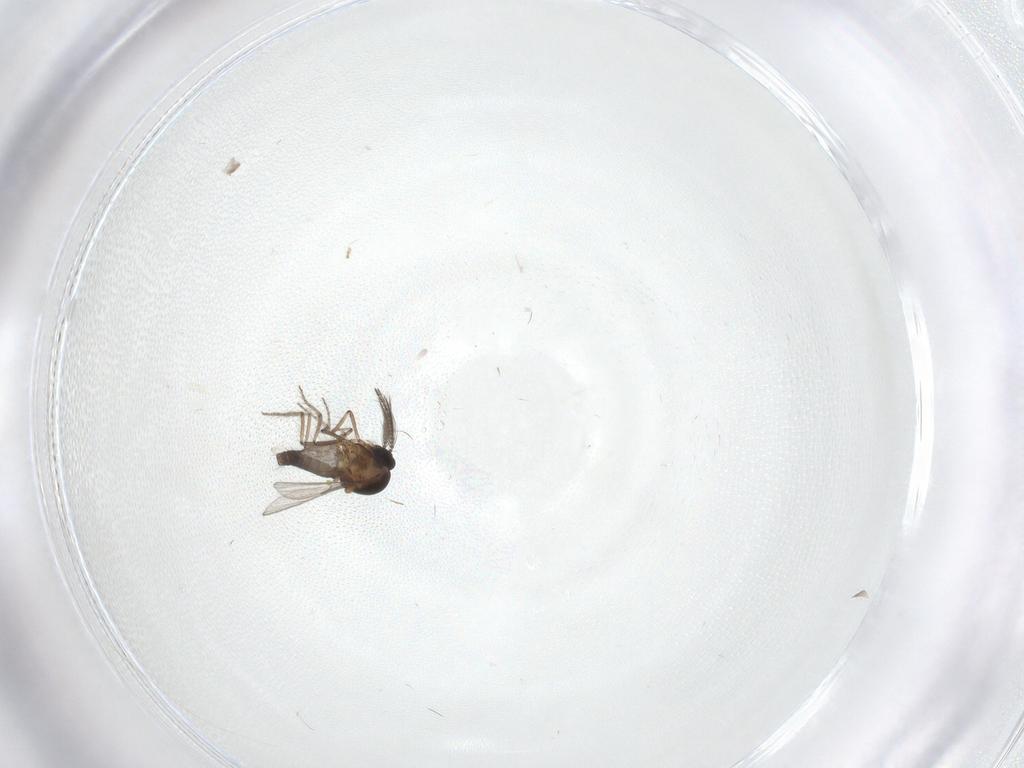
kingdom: Animalia
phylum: Arthropoda
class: Insecta
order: Diptera
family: Ceratopogonidae
